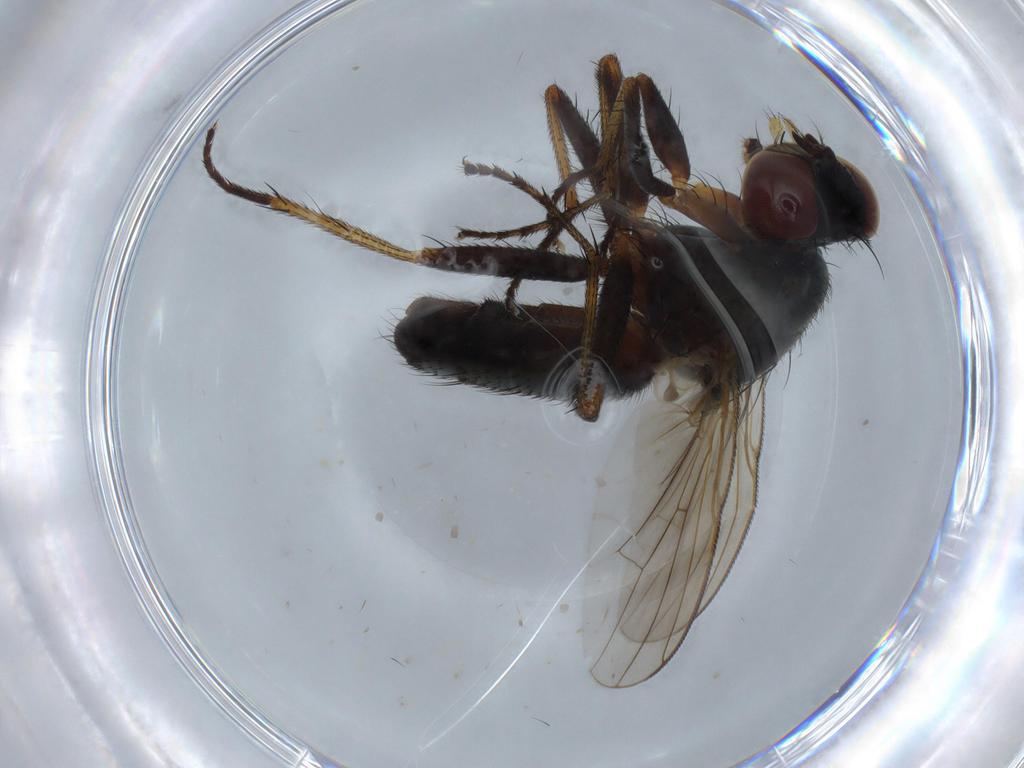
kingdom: Animalia
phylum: Arthropoda
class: Insecta
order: Diptera
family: Muscidae
